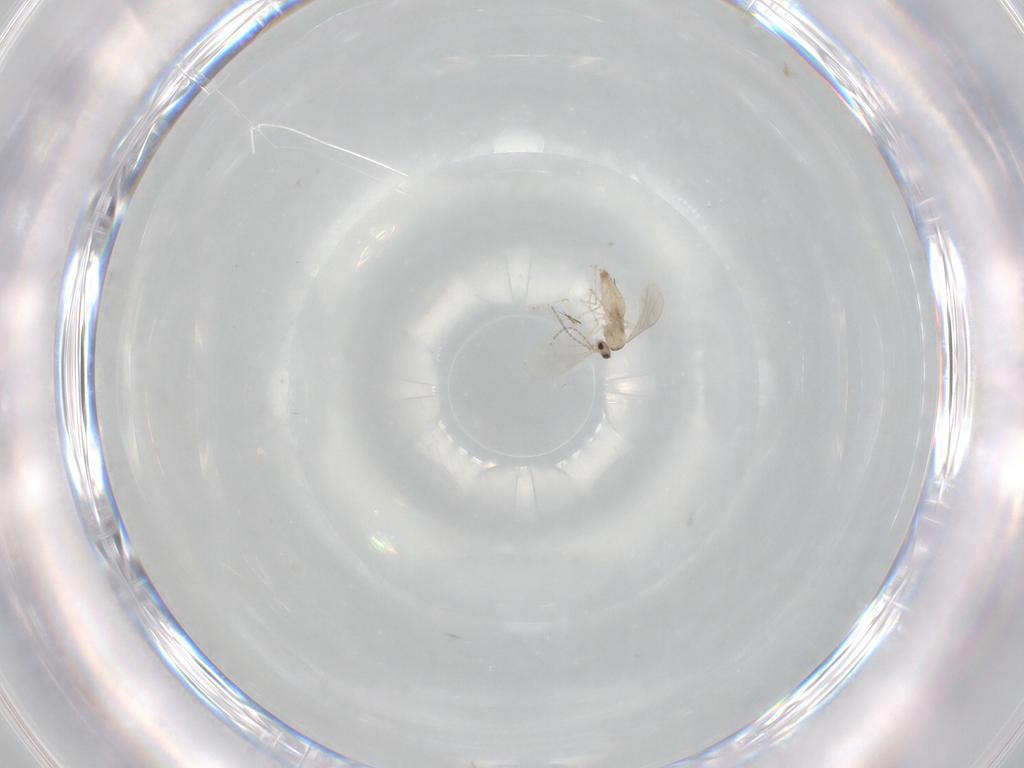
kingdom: Animalia
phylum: Arthropoda
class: Insecta
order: Diptera
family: Cecidomyiidae
